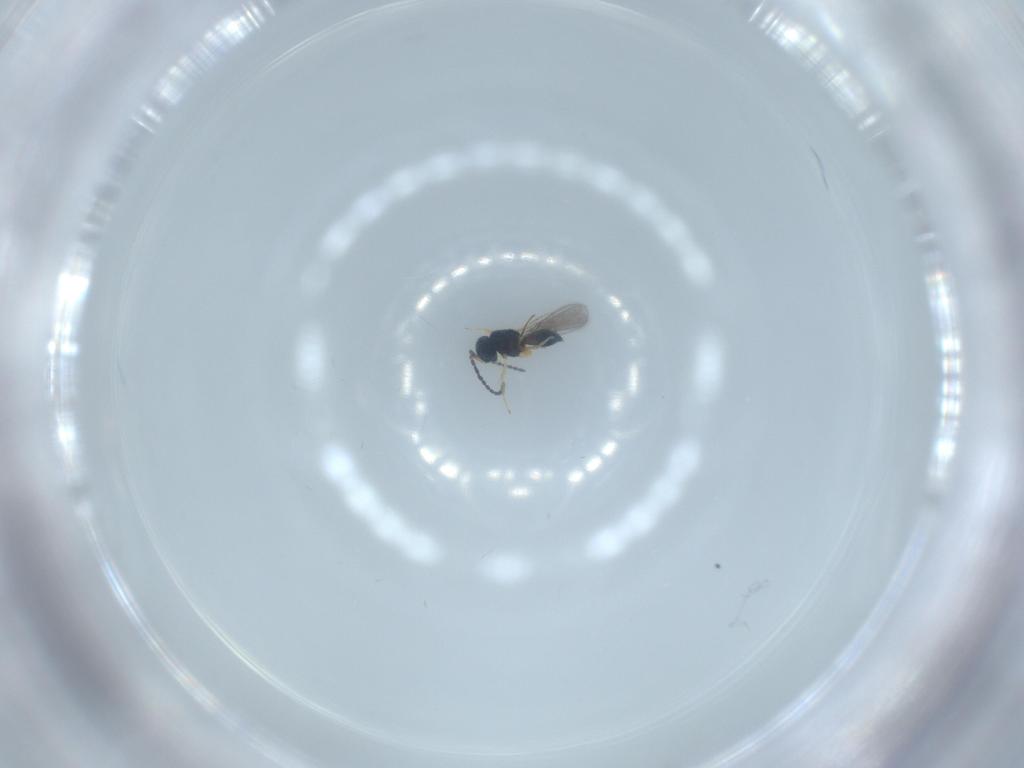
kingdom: Animalia
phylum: Arthropoda
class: Insecta
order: Hymenoptera
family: Scelionidae
